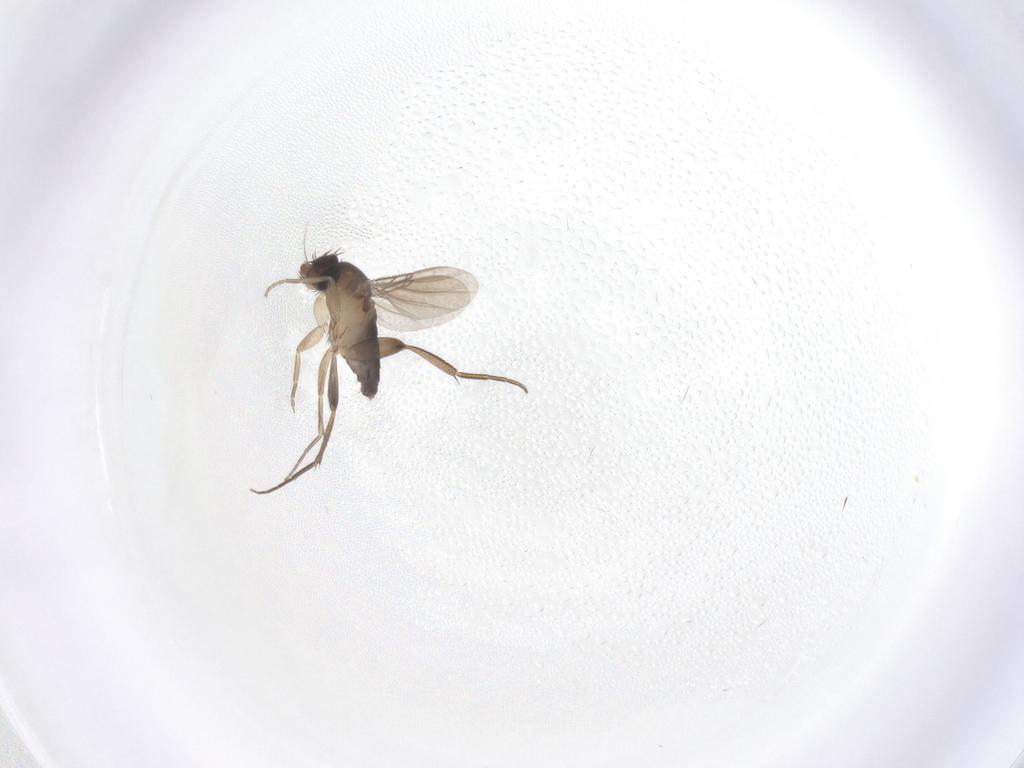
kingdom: Animalia
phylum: Arthropoda
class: Insecta
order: Diptera
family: Phoridae
